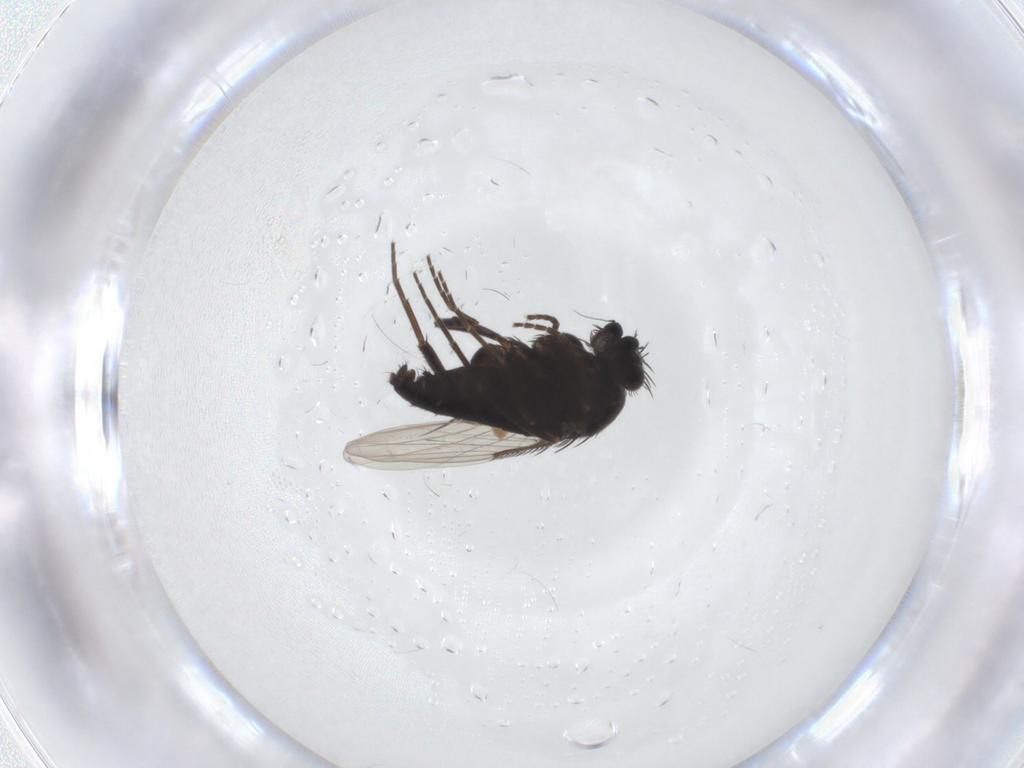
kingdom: Animalia
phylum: Arthropoda
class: Insecta
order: Diptera
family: Phoridae
